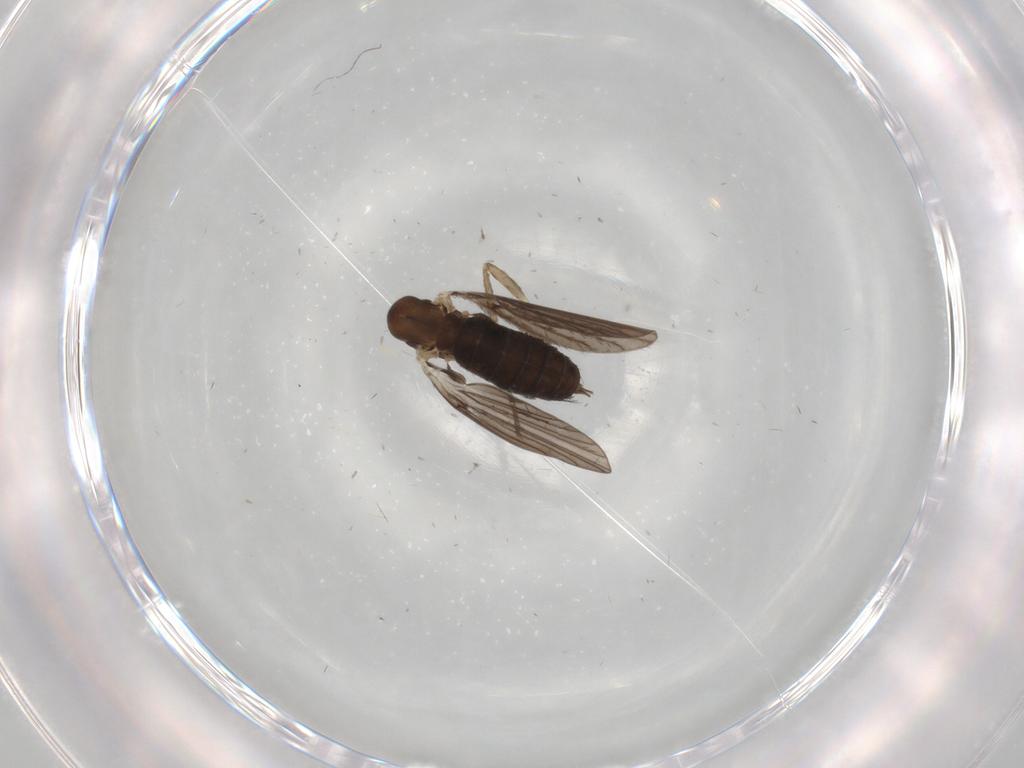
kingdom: Animalia
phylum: Arthropoda
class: Insecta
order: Diptera
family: Psychodidae
